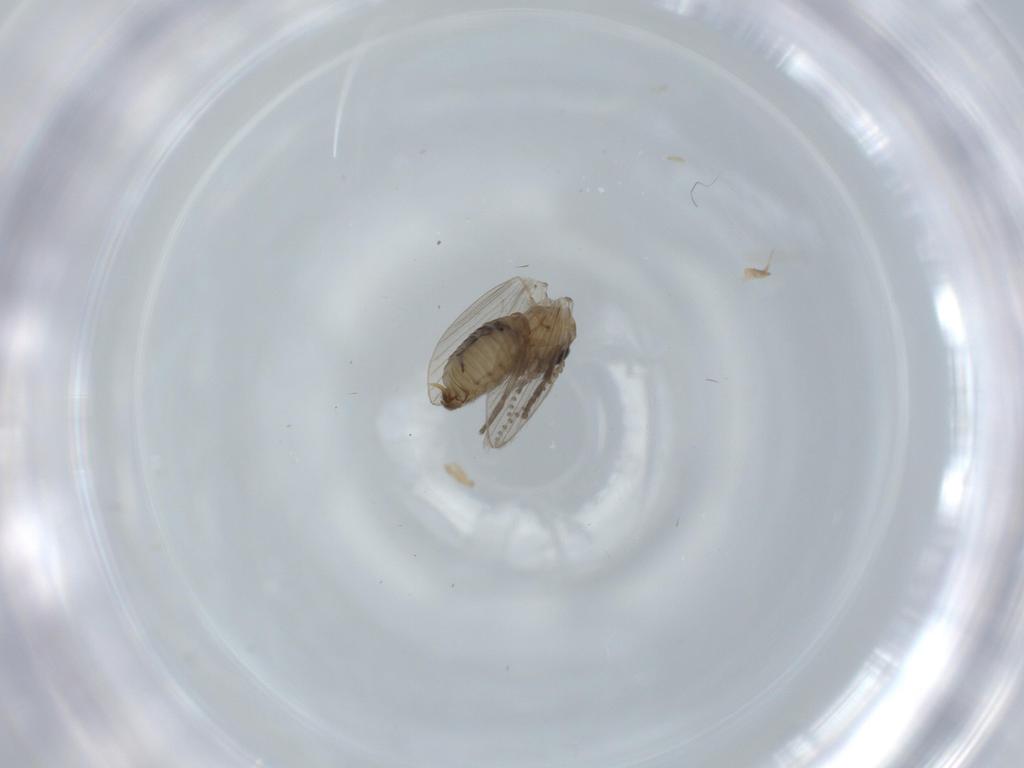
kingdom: Animalia
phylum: Arthropoda
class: Insecta
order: Diptera
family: Psychodidae
